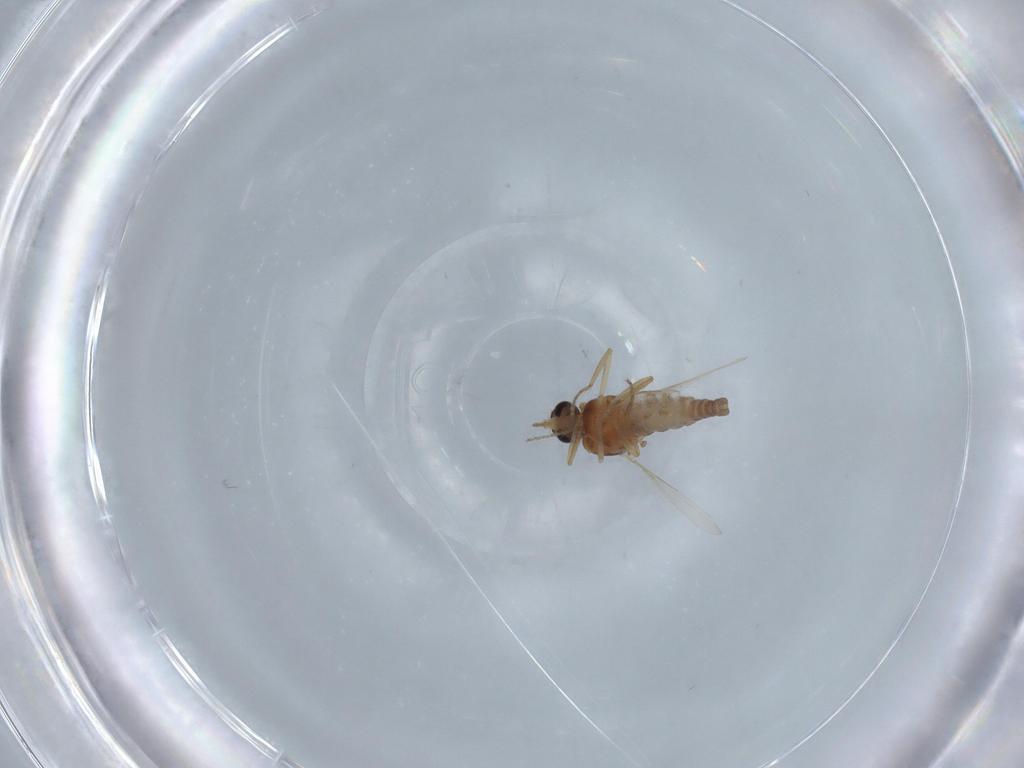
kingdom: Animalia
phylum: Arthropoda
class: Insecta
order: Diptera
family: Ceratopogonidae
